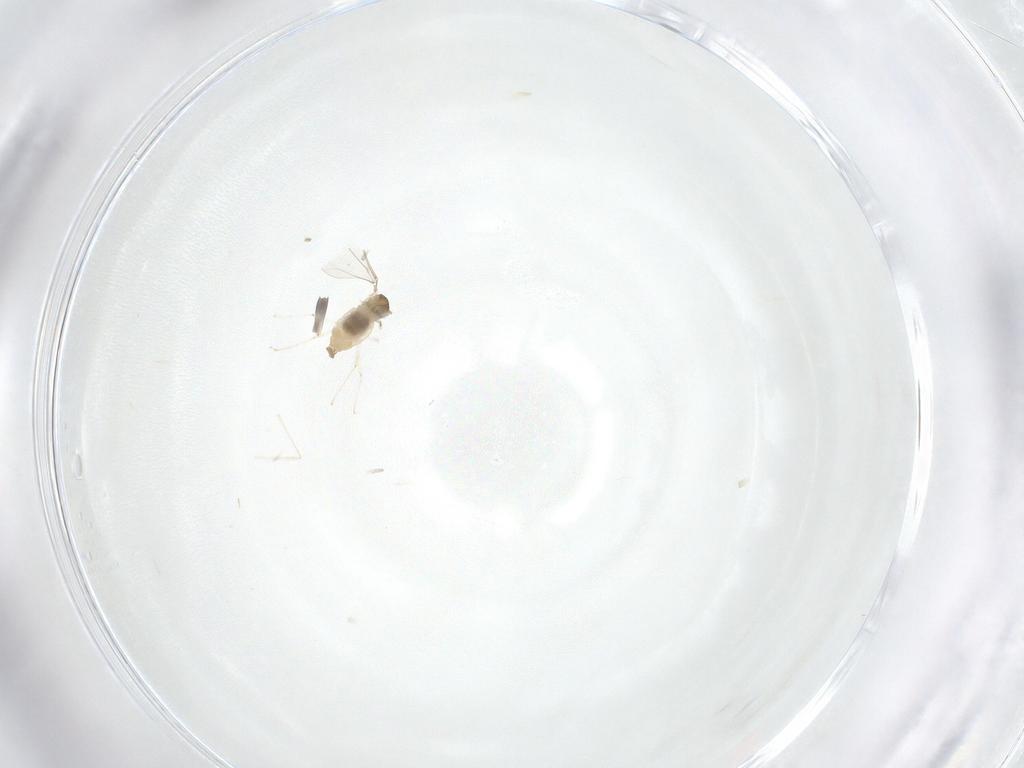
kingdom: Animalia
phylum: Arthropoda
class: Insecta
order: Diptera
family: Cecidomyiidae
